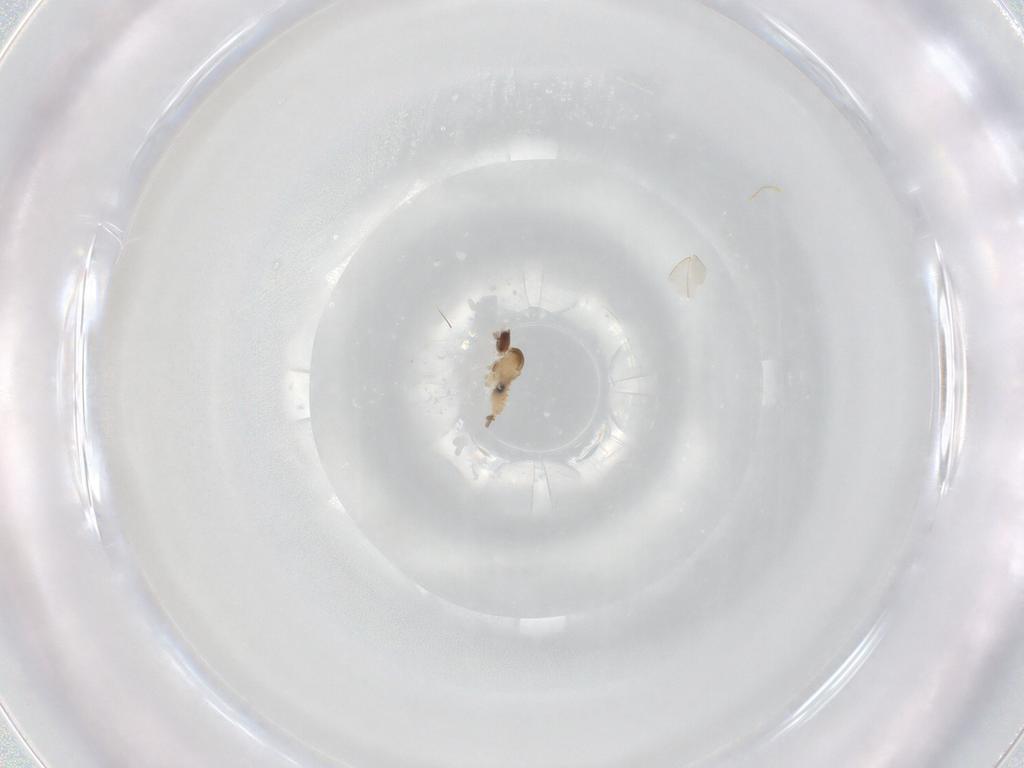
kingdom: Animalia
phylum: Arthropoda
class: Insecta
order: Diptera
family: Cecidomyiidae
